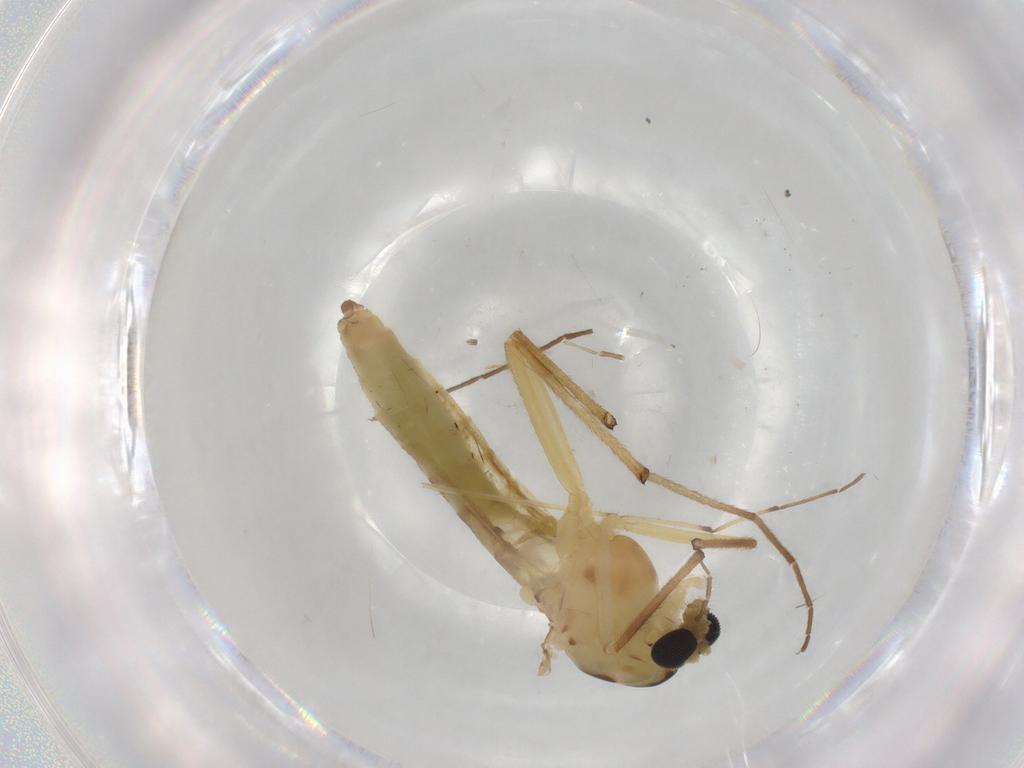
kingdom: Animalia
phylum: Arthropoda
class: Insecta
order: Diptera
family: Chironomidae
